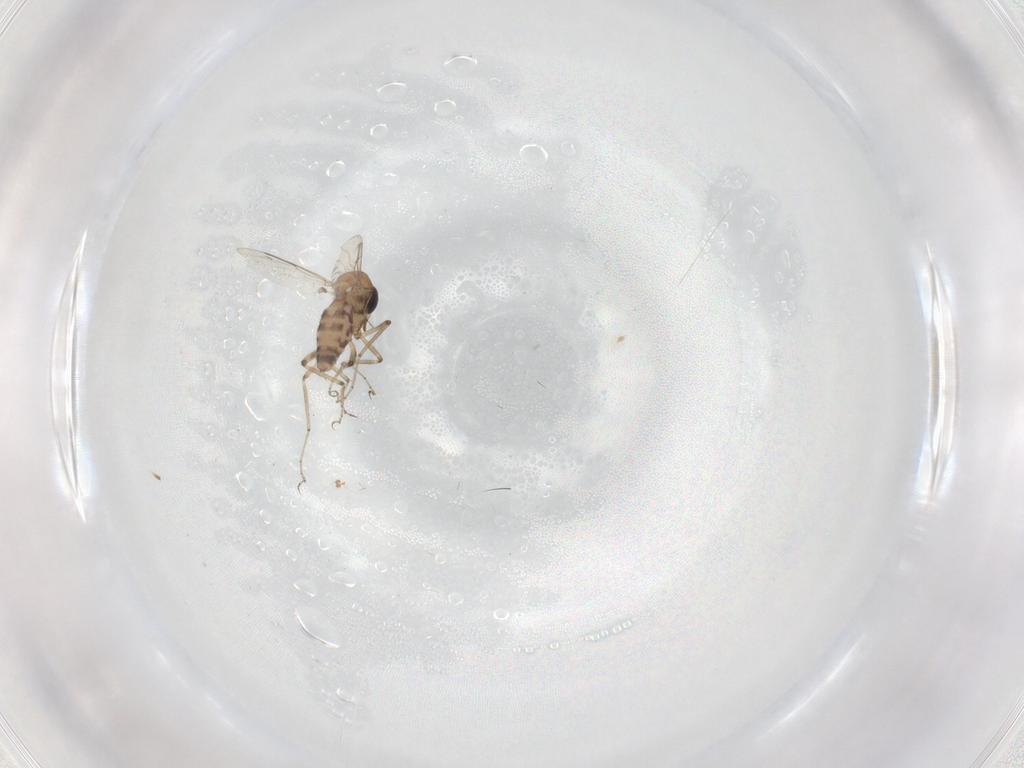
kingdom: Animalia
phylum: Arthropoda
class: Insecta
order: Diptera
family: Ceratopogonidae
